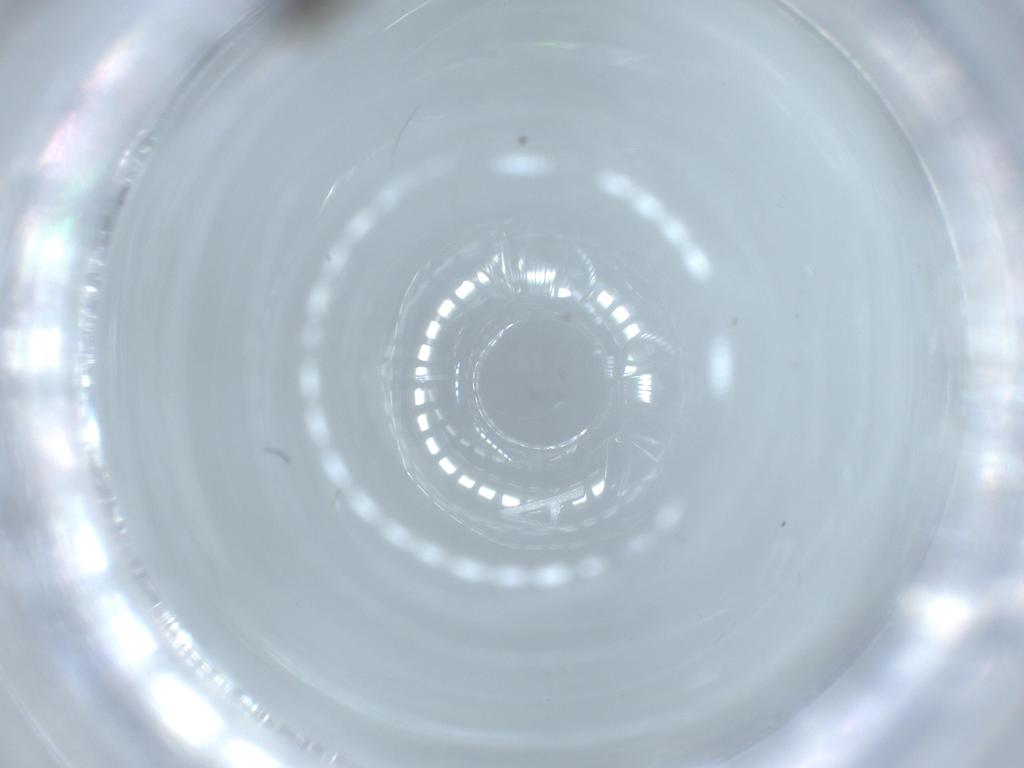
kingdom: Animalia
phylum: Arthropoda
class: Insecta
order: Diptera
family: Psychodidae
